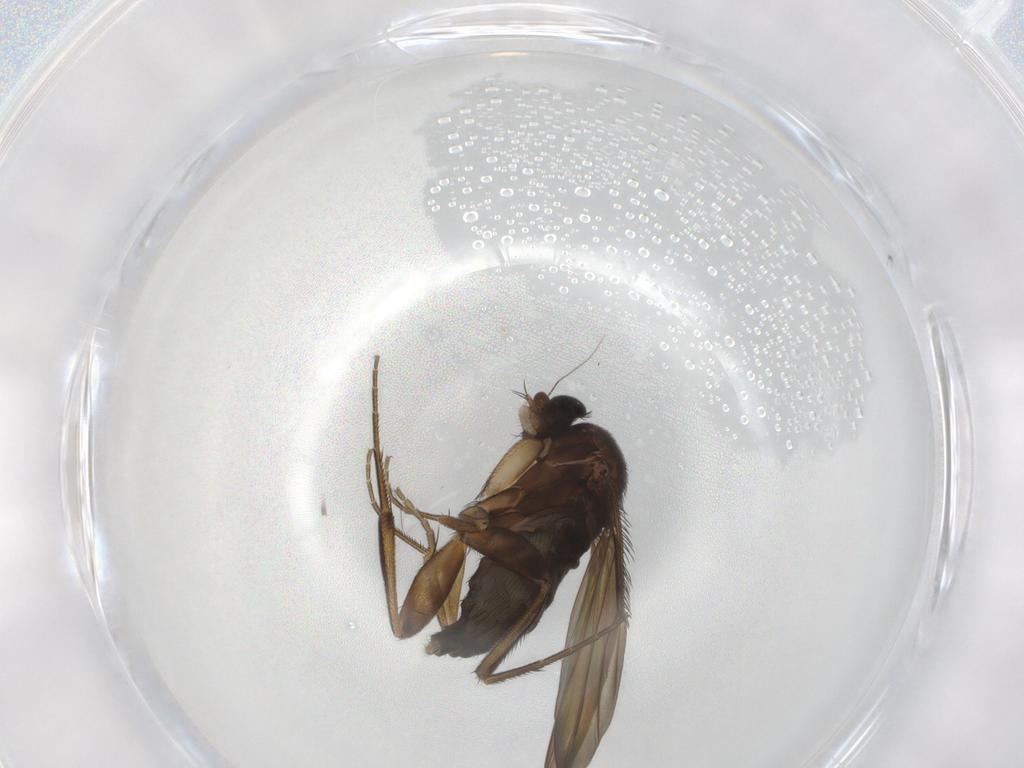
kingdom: Animalia
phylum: Arthropoda
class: Insecta
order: Diptera
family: Phoridae
